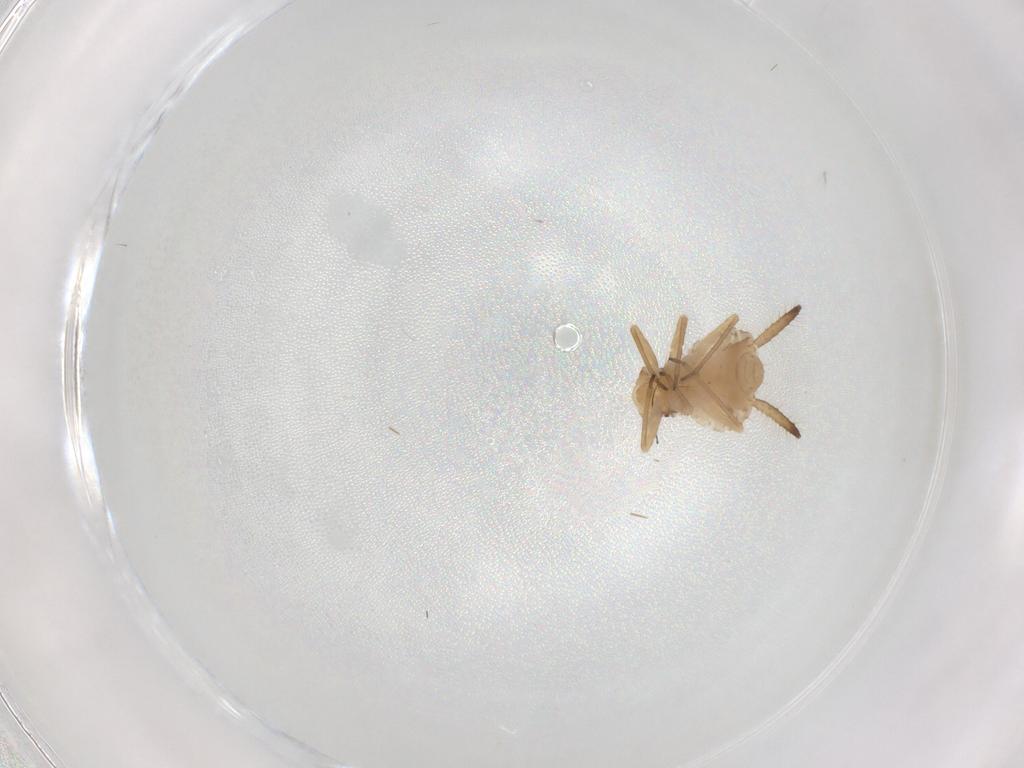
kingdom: Animalia
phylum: Arthropoda
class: Insecta
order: Hemiptera
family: Aphididae
